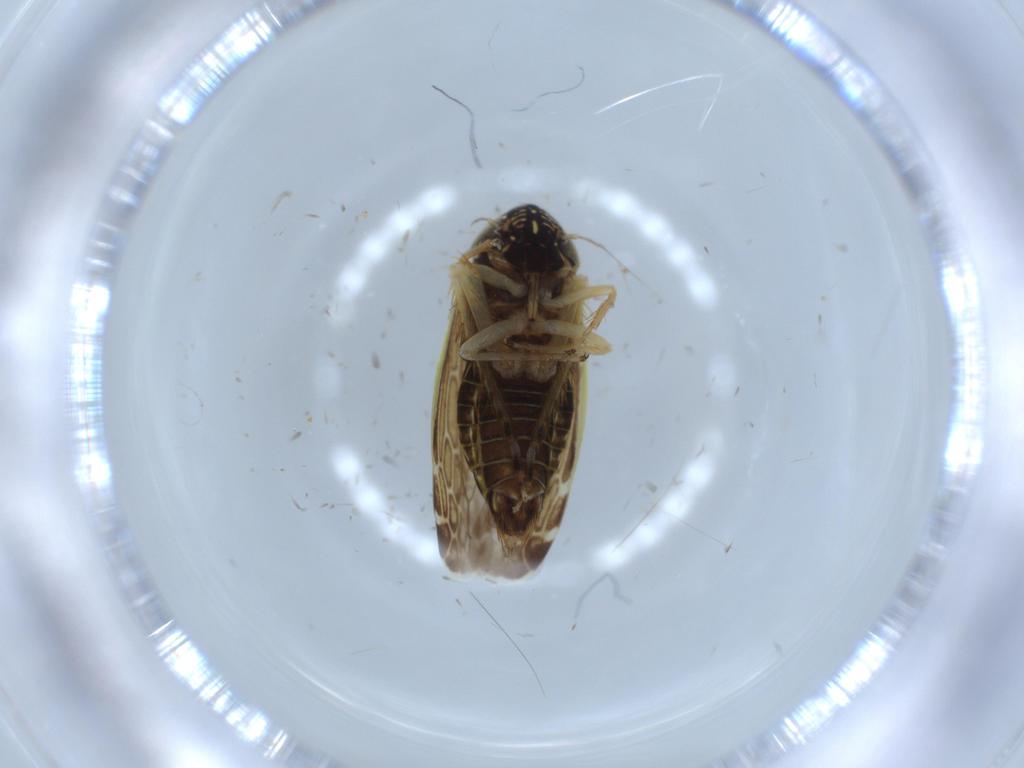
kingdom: Animalia
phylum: Arthropoda
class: Insecta
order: Hemiptera
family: Cicadellidae
